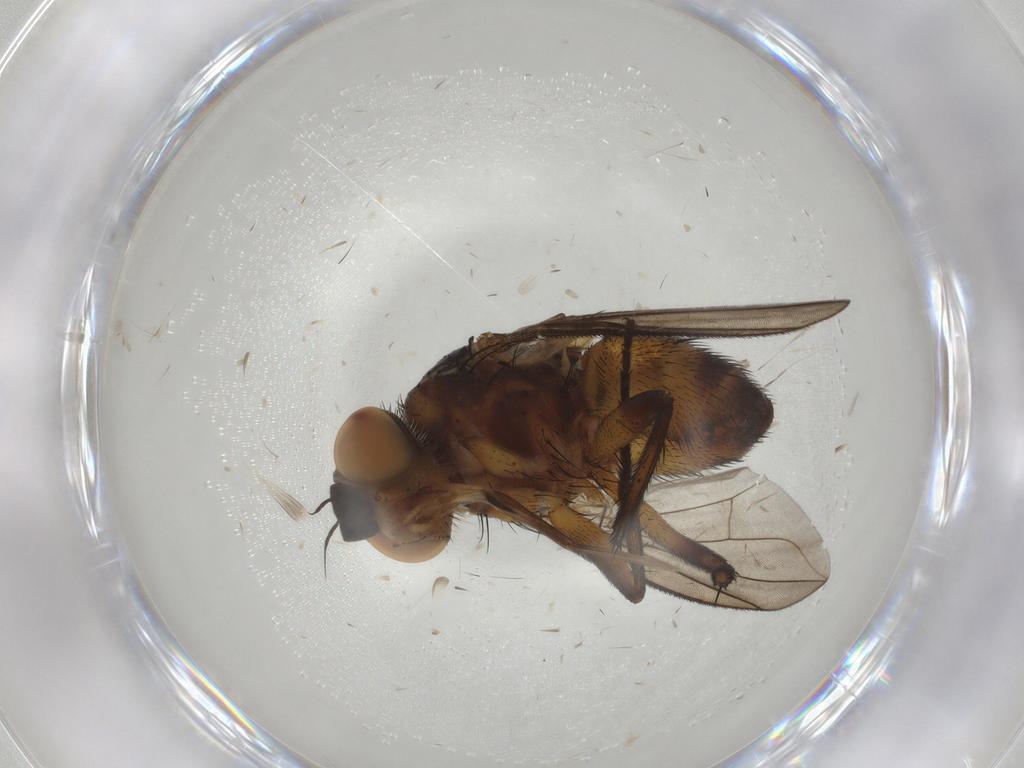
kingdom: Animalia
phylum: Arthropoda
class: Insecta
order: Diptera
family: Tachinidae
